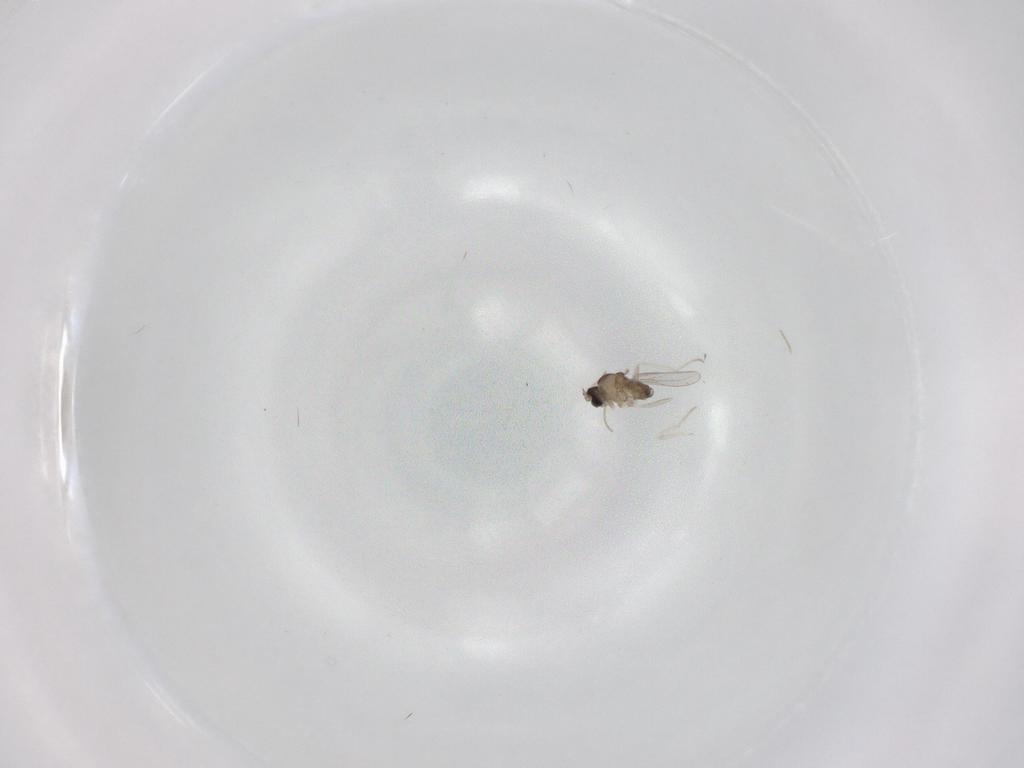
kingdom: Animalia
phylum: Arthropoda
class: Insecta
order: Diptera
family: Cecidomyiidae
